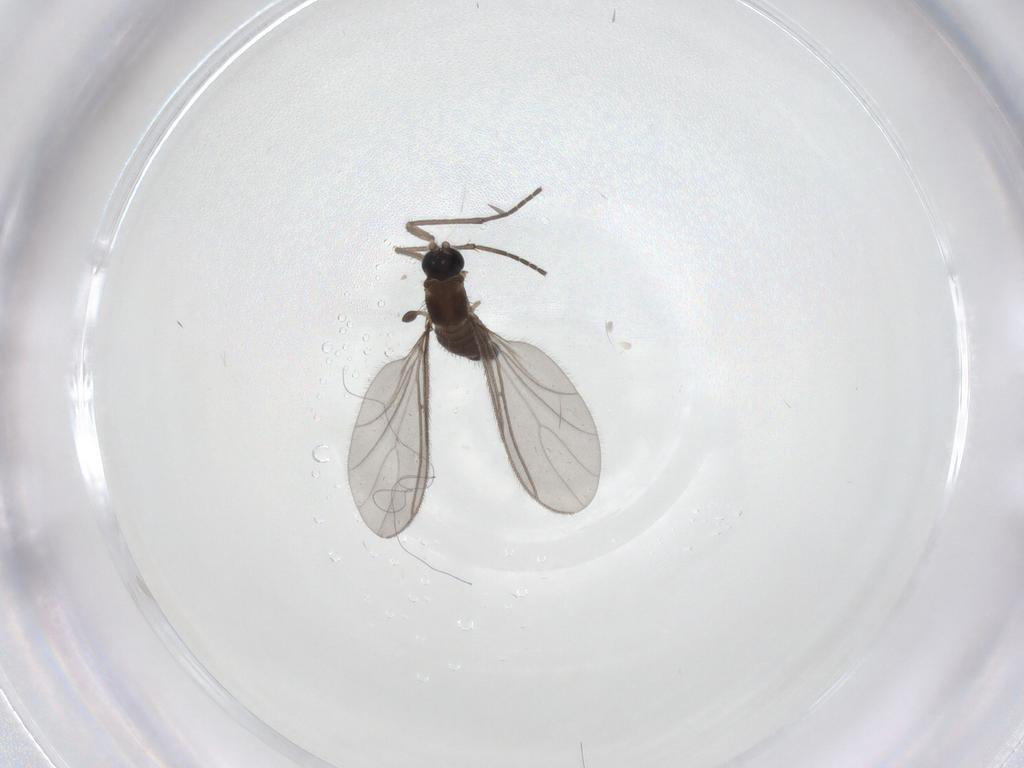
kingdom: Animalia
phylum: Arthropoda
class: Insecta
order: Diptera
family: Sciaridae
